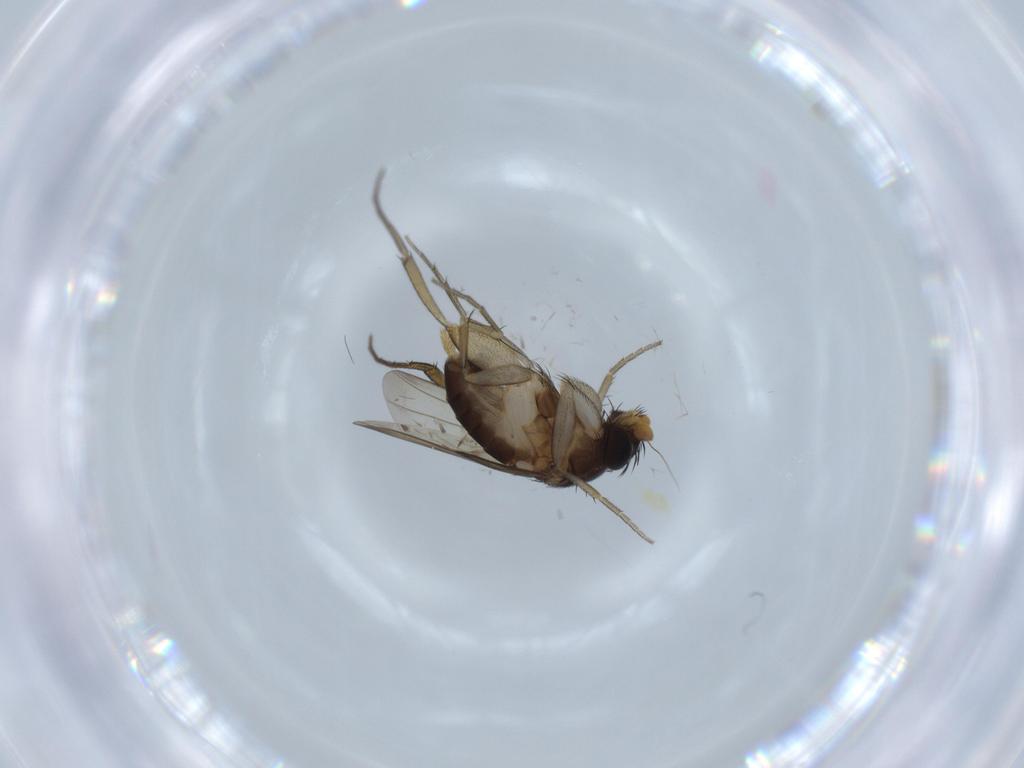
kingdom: Animalia
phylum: Arthropoda
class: Insecta
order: Diptera
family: Phoridae
